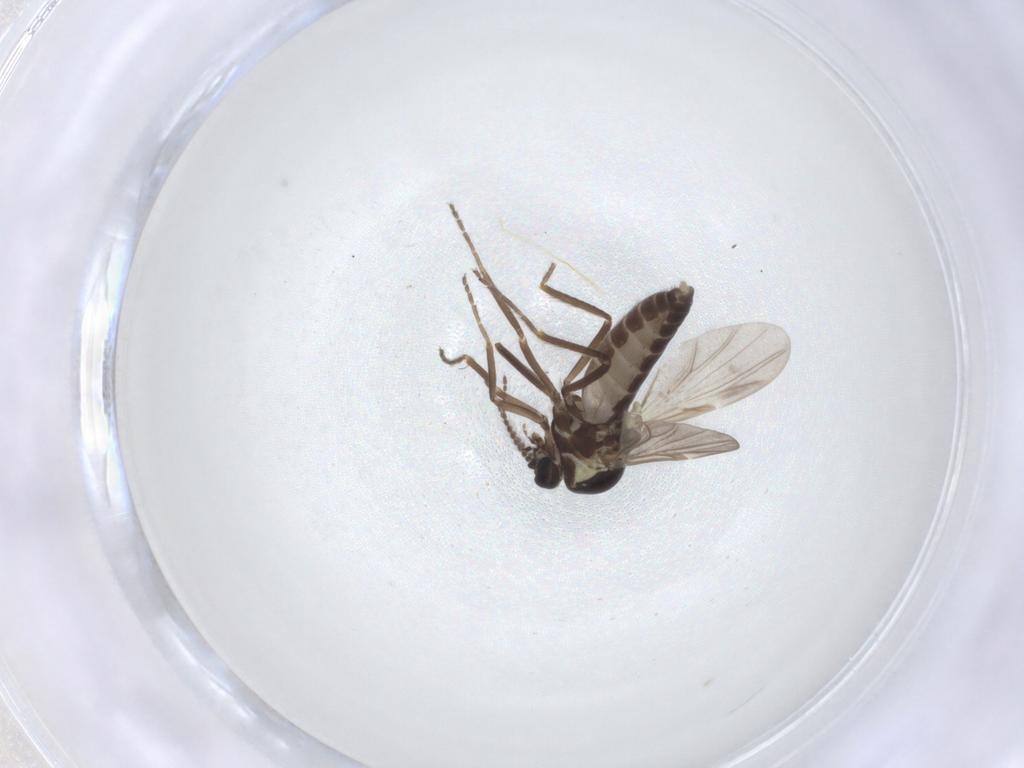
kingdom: Animalia
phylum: Arthropoda
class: Insecta
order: Diptera
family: Ceratopogonidae
